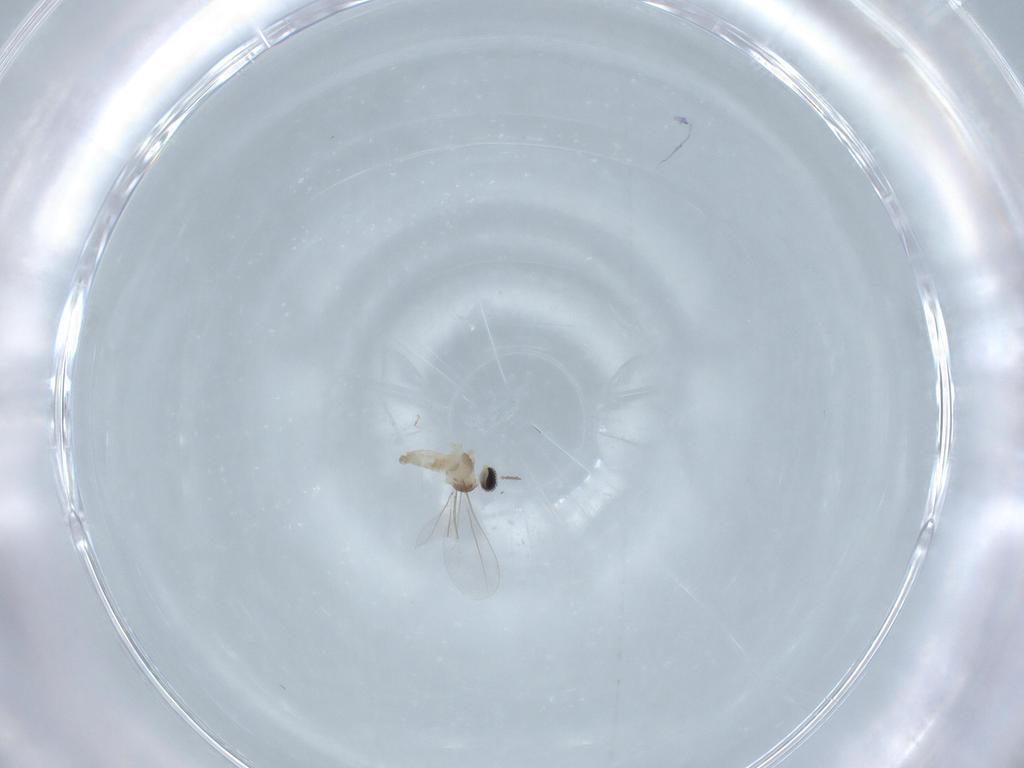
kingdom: Animalia
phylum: Arthropoda
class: Insecta
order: Diptera
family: Cecidomyiidae
